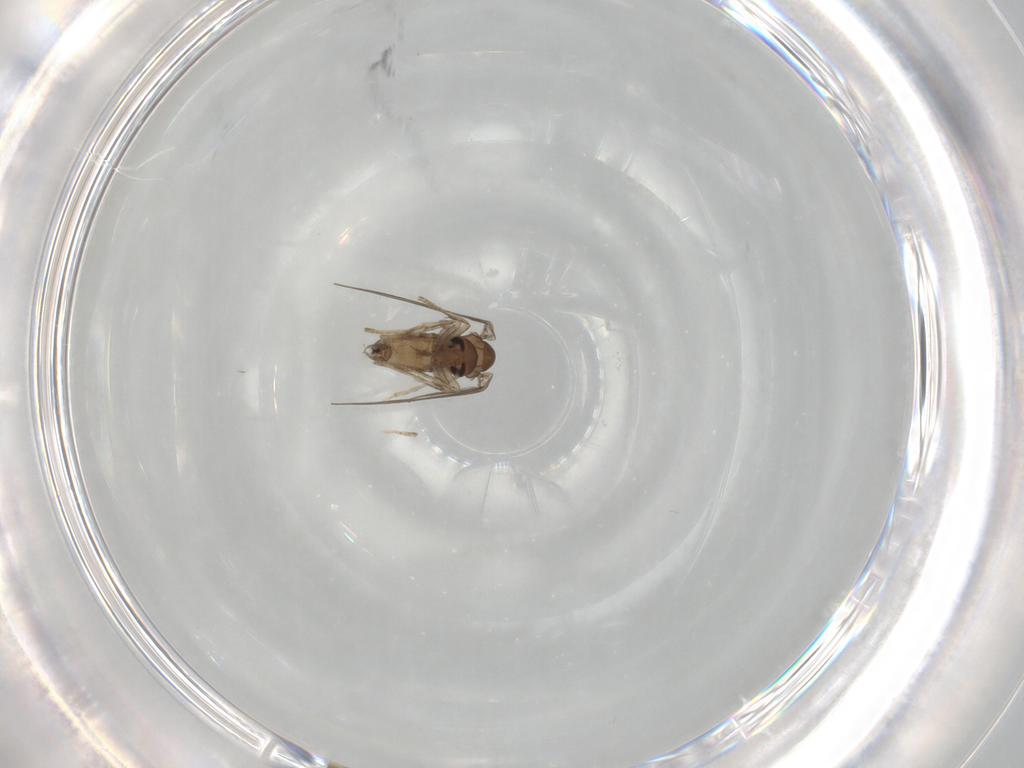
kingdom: Animalia
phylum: Arthropoda
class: Insecta
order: Diptera
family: Psychodidae
